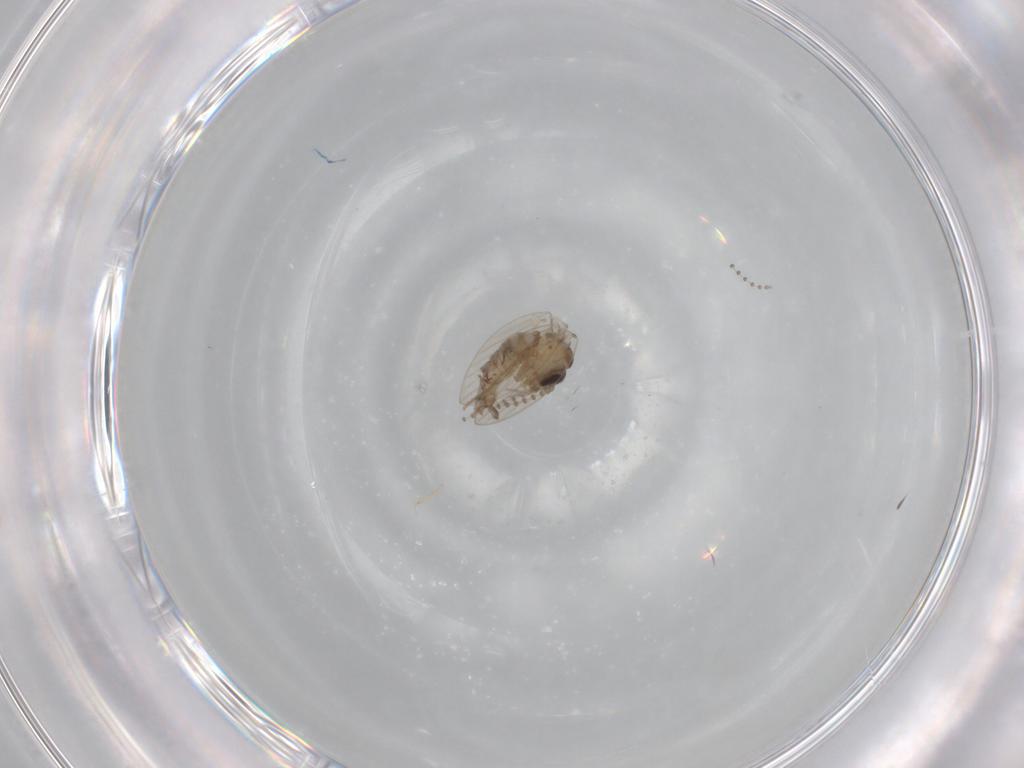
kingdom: Animalia
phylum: Arthropoda
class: Insecta
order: Diptera
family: Psychodidae
